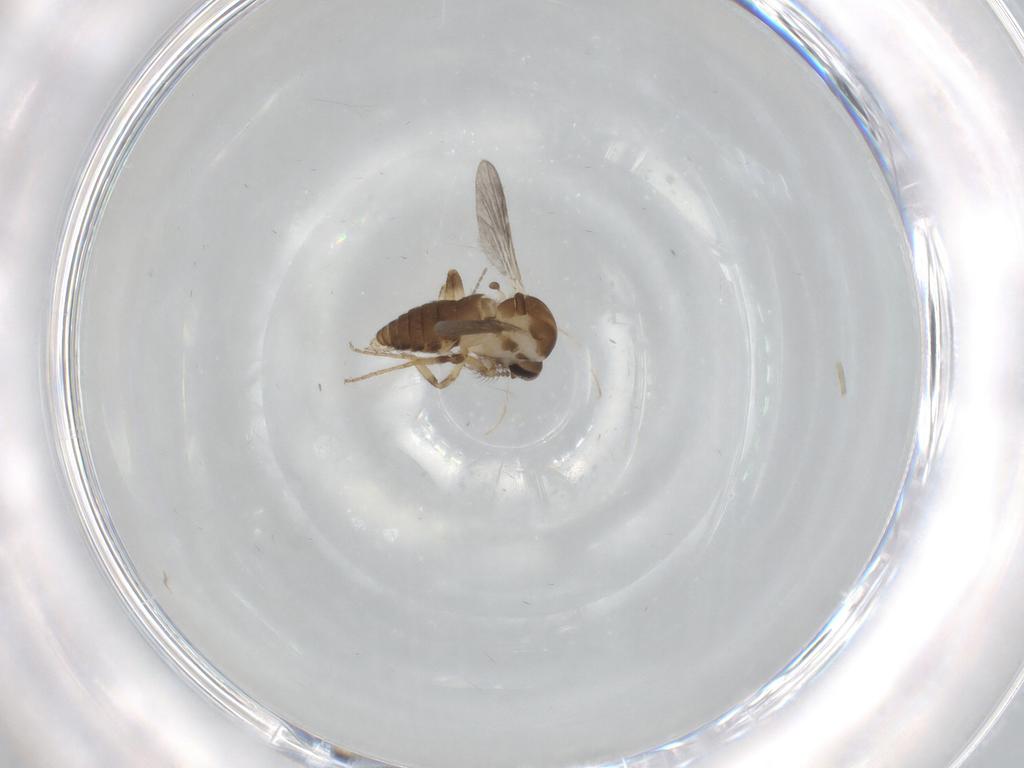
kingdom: Animalia
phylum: Arthropoda
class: Insecta
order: Diptera
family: Ceratopogonidae
